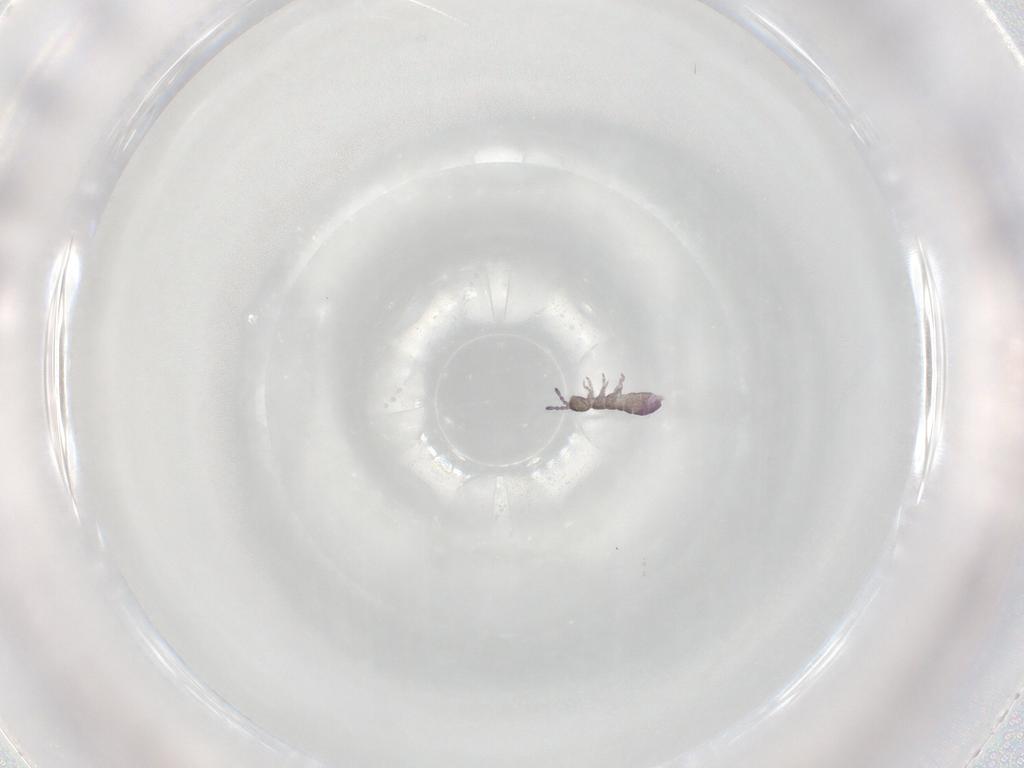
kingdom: Animalia
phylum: Arthropoda
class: Collembola
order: Entomobryomorpha
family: Isotomidae
